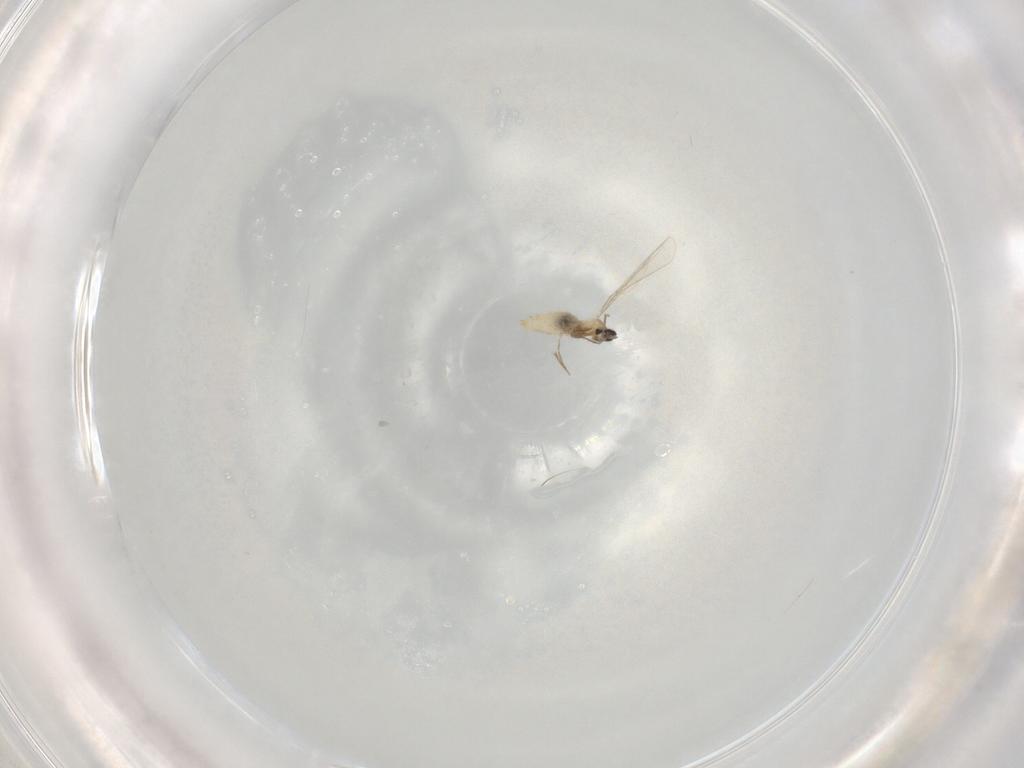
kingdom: Animalia
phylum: Arthropoda
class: Insecta
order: Diptera
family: Cecidomyiidae
